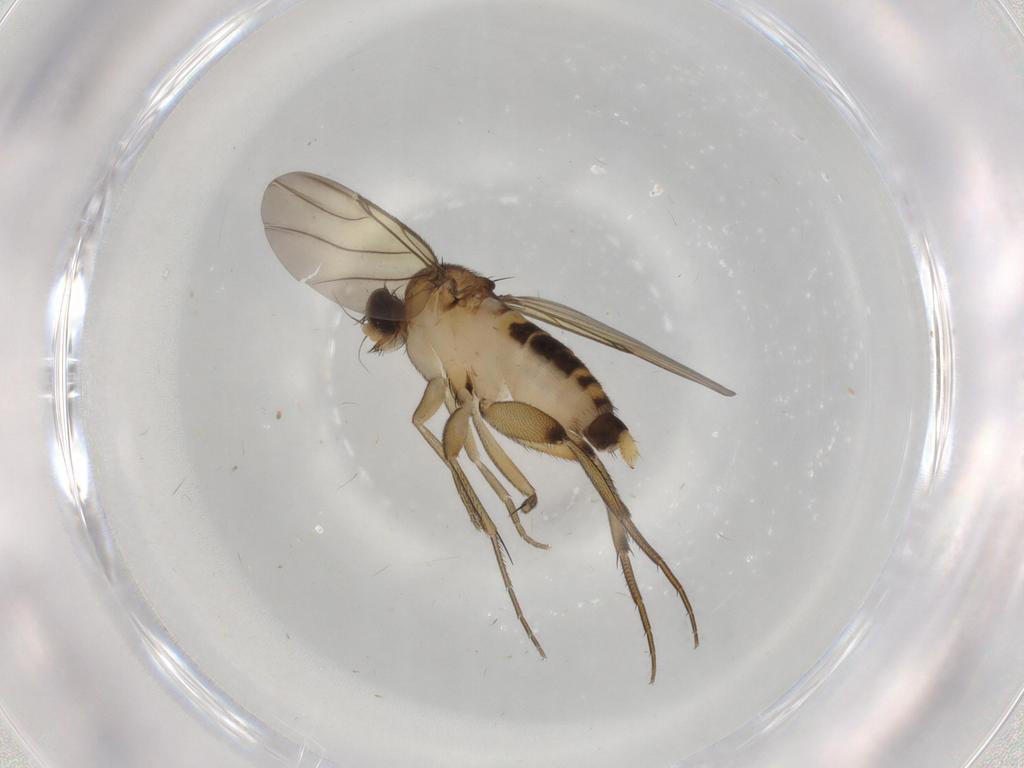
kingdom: Animalia
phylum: Arthropoda
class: Insecta
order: Diptera
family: Phoridae
